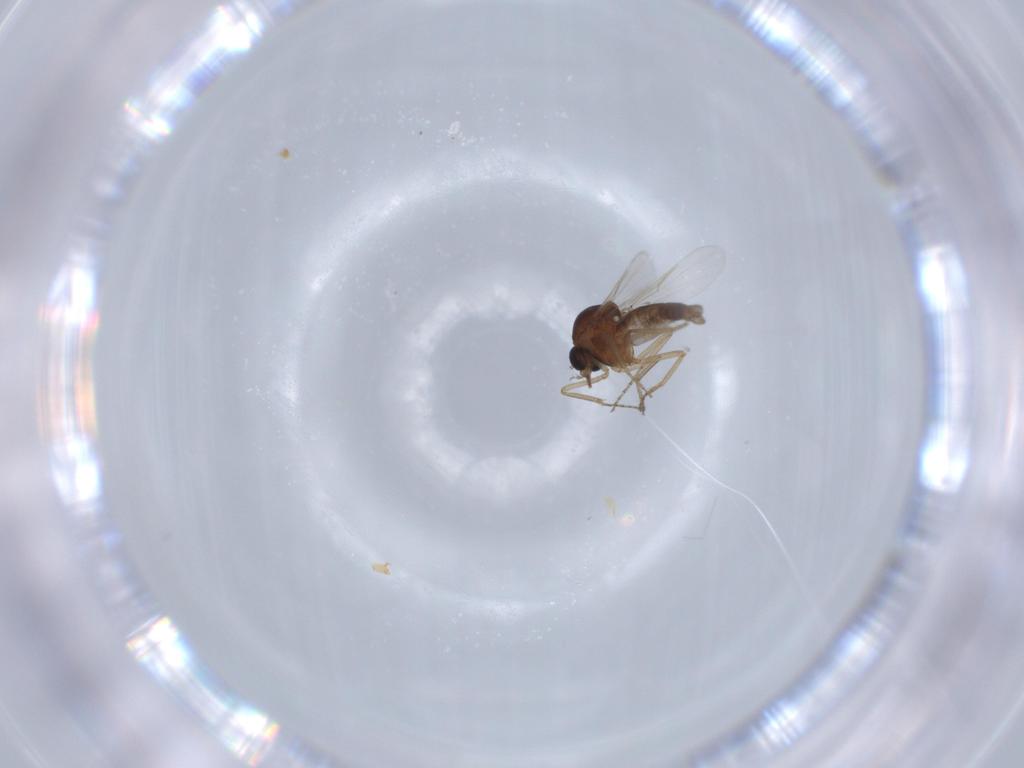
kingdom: Animalia
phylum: Arthropoda
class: Insecta
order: Diptera
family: Ceratopogonidae
